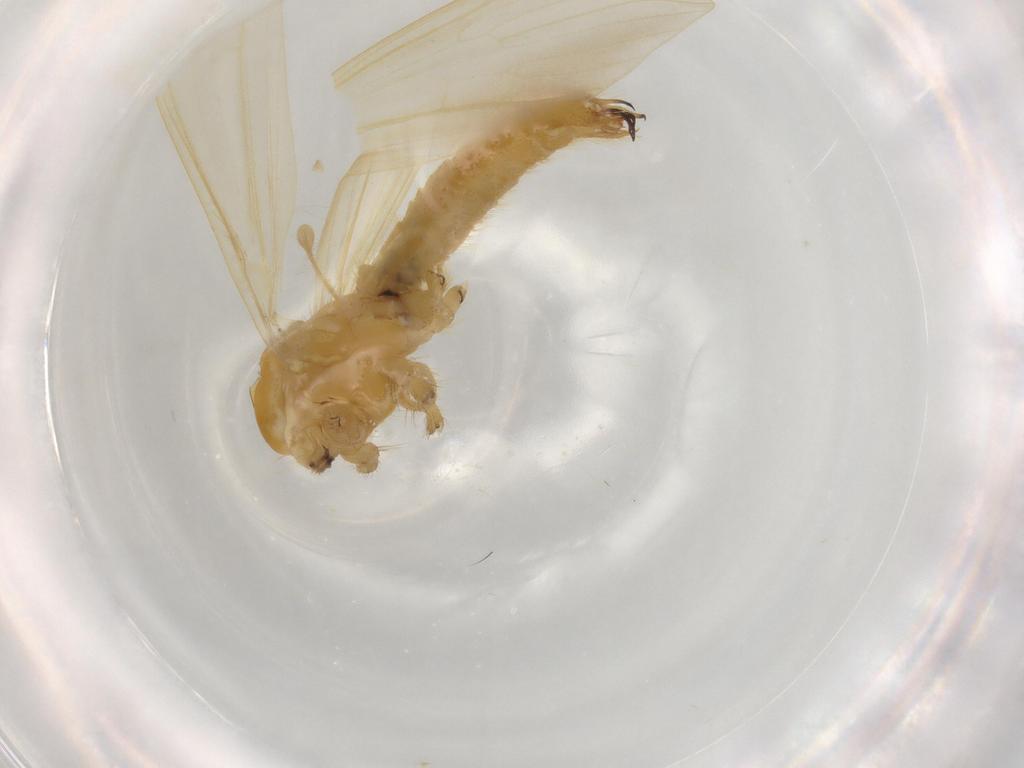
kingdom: Animalia
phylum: Arthropoda
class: Insecta
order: Diptera
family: Limoniidae
